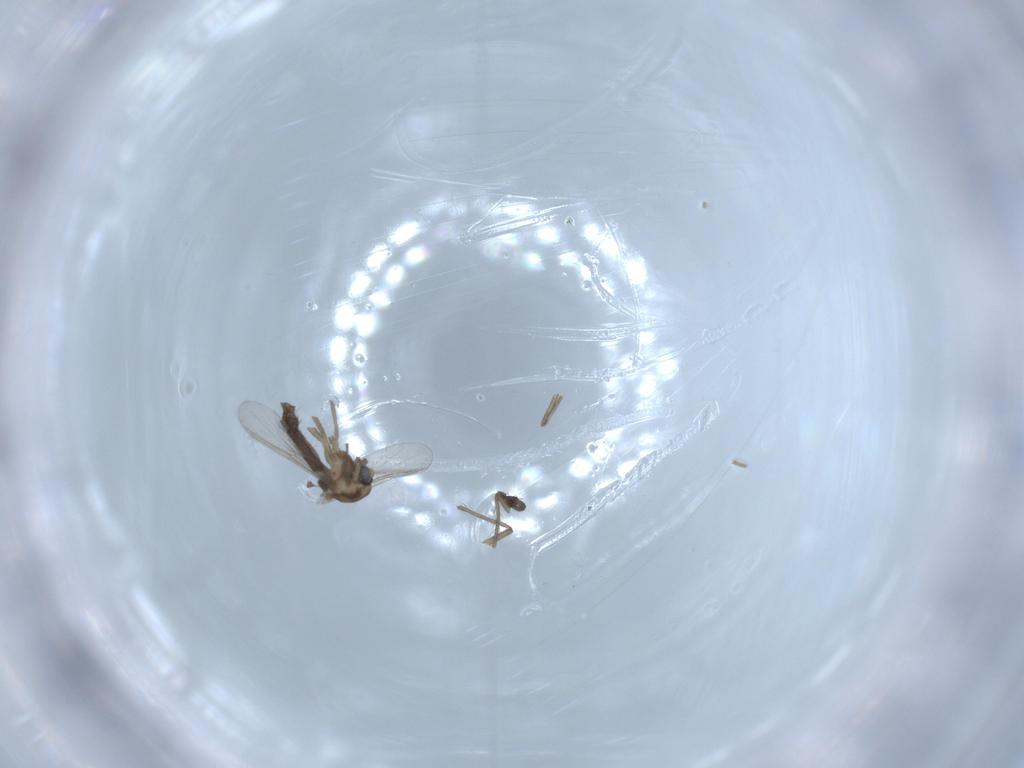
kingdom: Animalia
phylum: Arthropoda
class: Insecta
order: Diptera
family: Chironomidae
